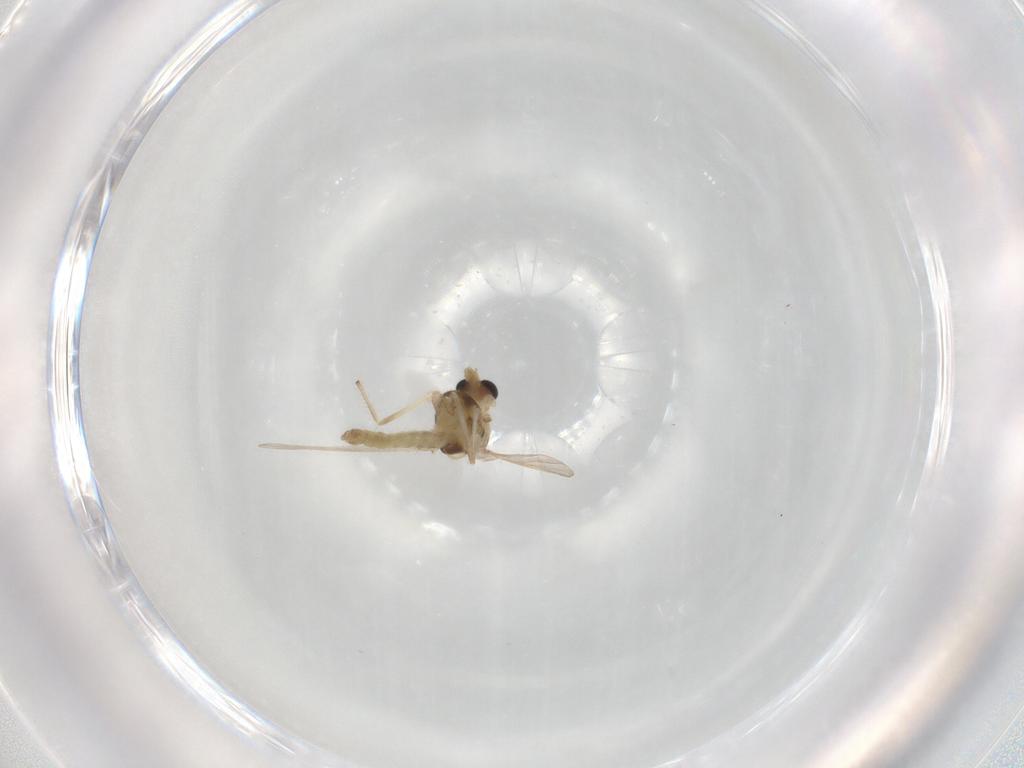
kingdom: Animalia
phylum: Arthropoda
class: Insecta
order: Diptera
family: Chironomidae
